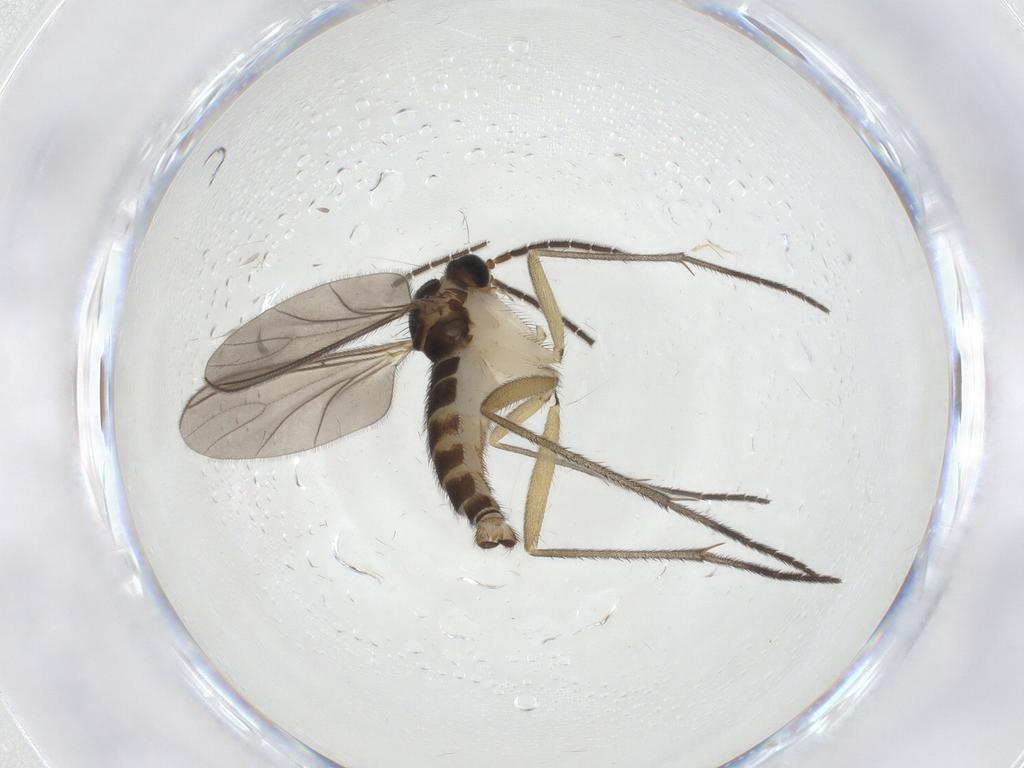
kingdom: Animalia
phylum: Arthropoda
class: Insecta
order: Diptera
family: Sciaridae
